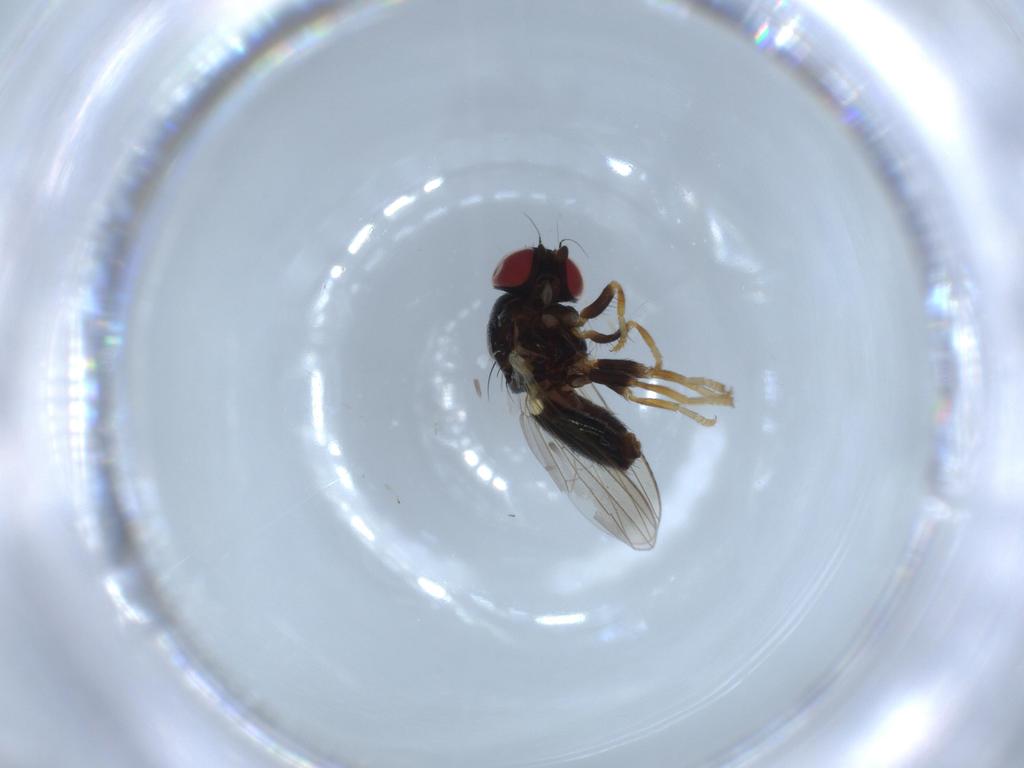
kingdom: Animalia
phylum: Arthropoda
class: Insecta
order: Diptera
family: Chamaemyiidae
